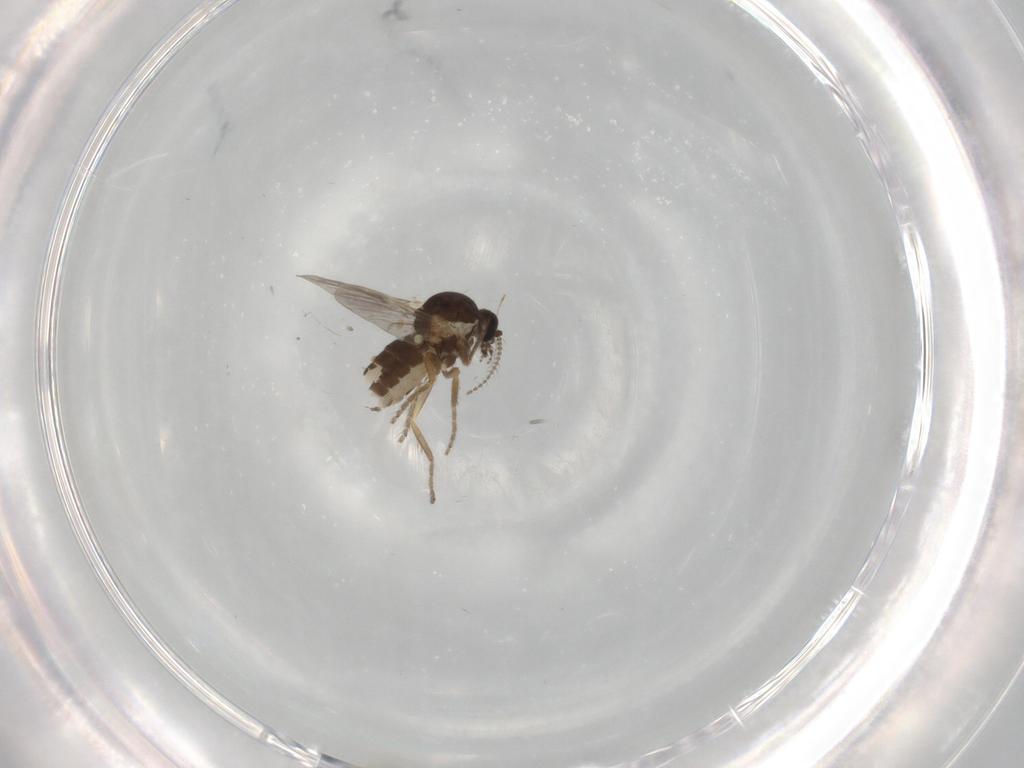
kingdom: Animalia
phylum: Arthropoda
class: Insecta
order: Diptera
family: Ceratopogonidae
